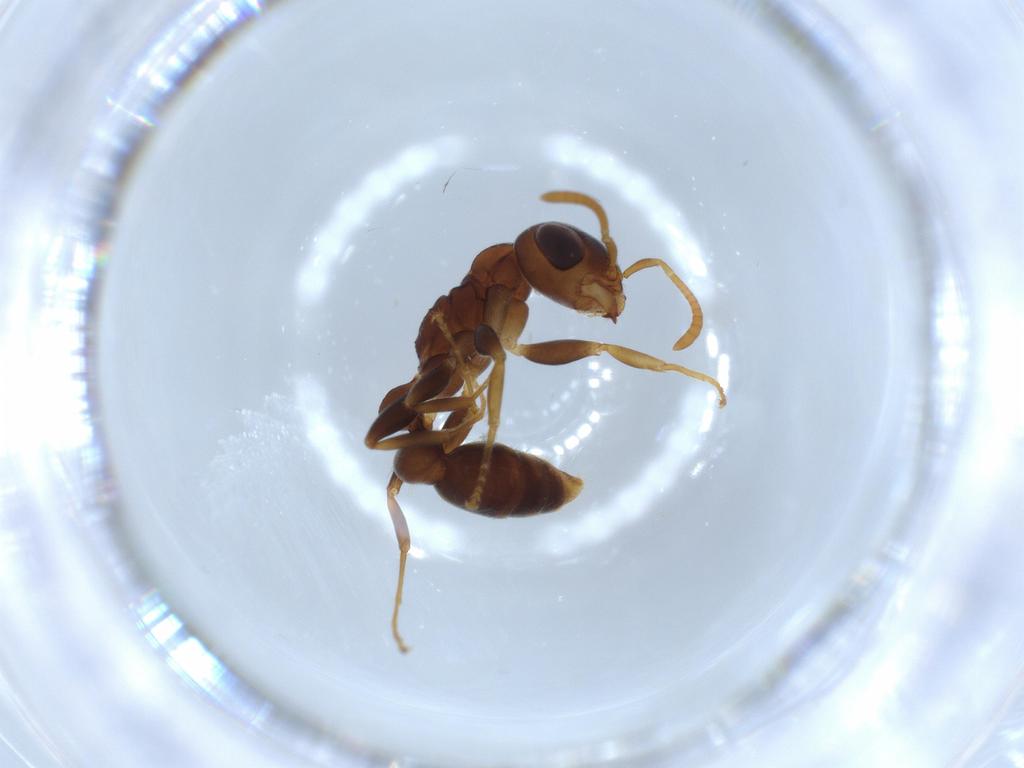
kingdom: Animalia
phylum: Arthropoda
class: Insecta
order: Hymenoptera
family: Formicidae
